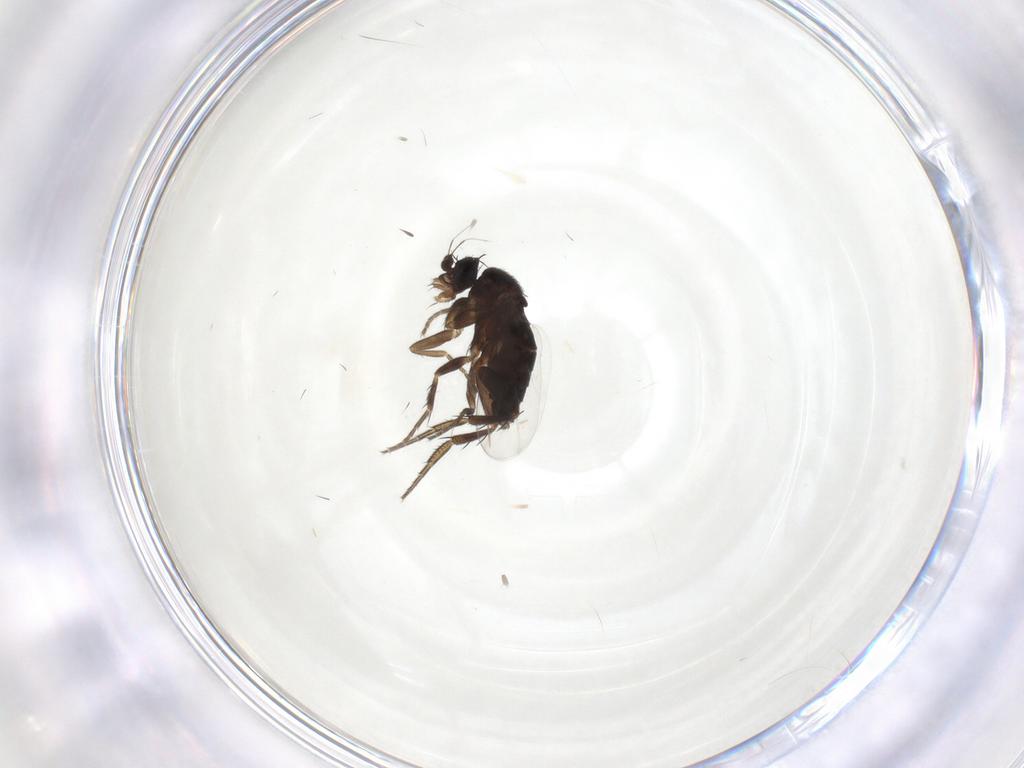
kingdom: Animalia
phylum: Arthropoda
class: Insecta
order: Diptera
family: Phoridae
